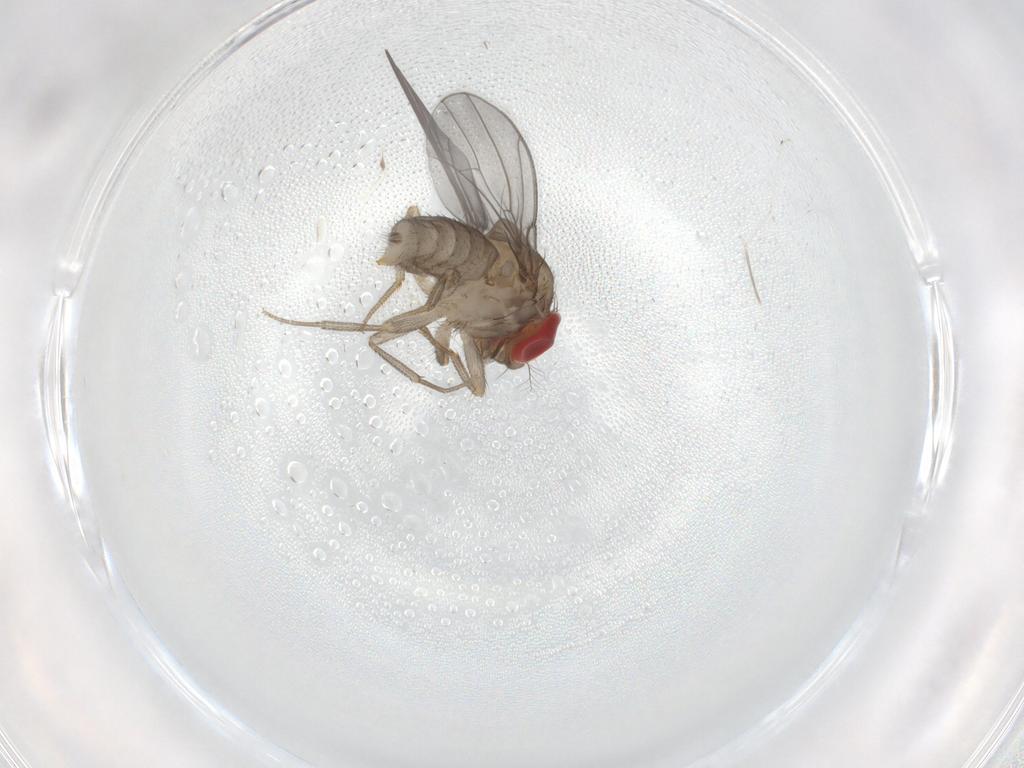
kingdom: Animalia
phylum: Arthropoda
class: Insecta
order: Diptera
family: Drosophilidae
